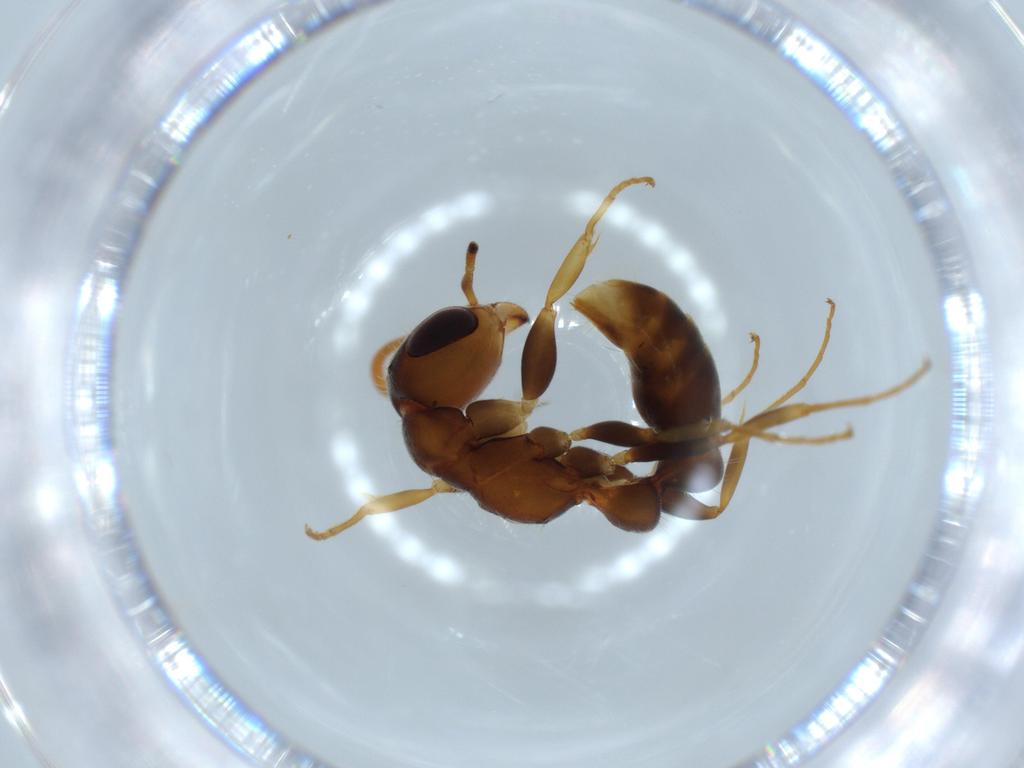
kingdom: Animalia
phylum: Arthropoda
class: Insecta
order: Hymenoptera
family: Formicidae
